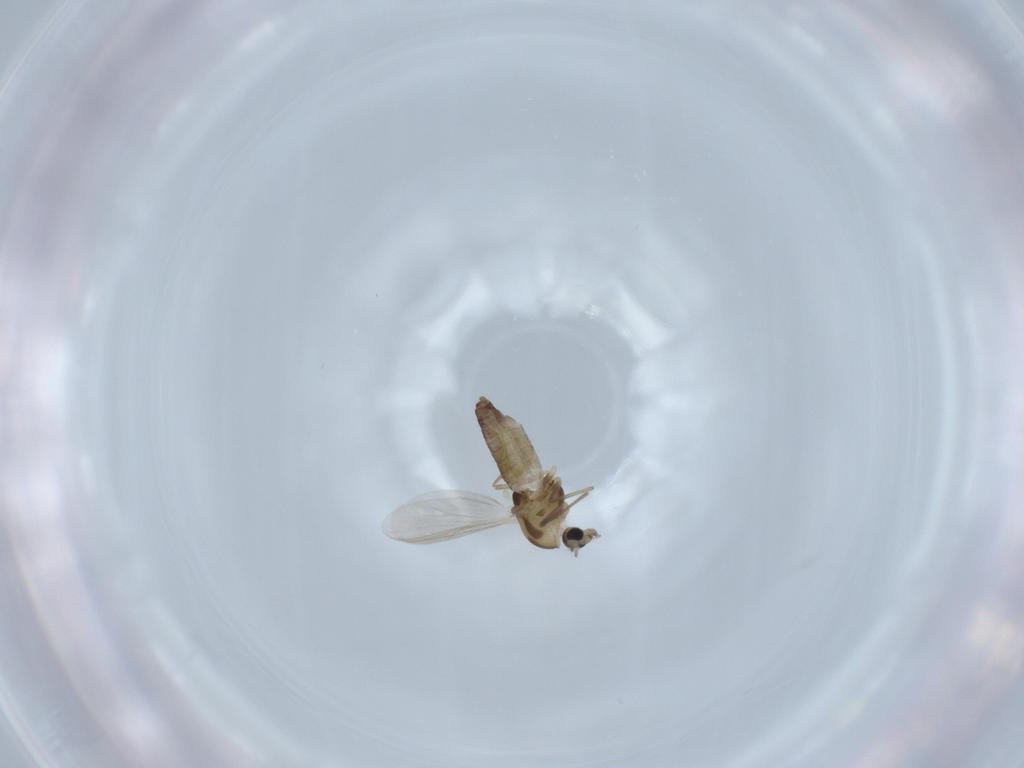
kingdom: Animalia
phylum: Arthropoda
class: Insecta
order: Diptera
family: Chironomidae
